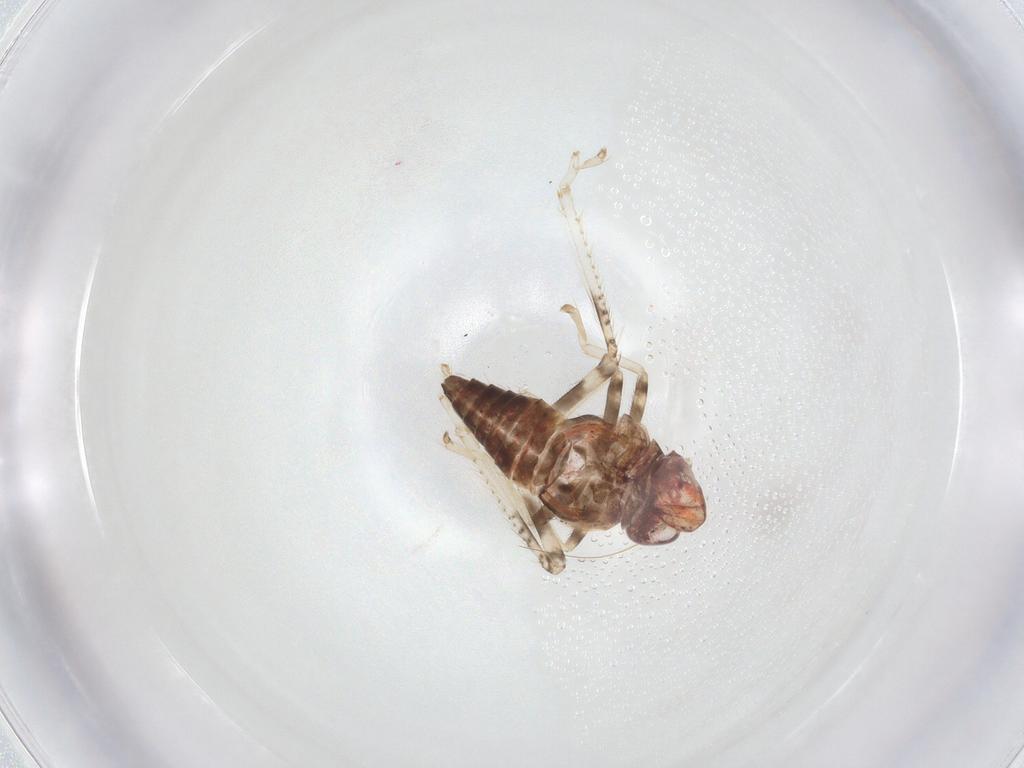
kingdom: Animalia
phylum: Arthropoda
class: Insecta
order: Hemiptera
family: Cicadellidae
